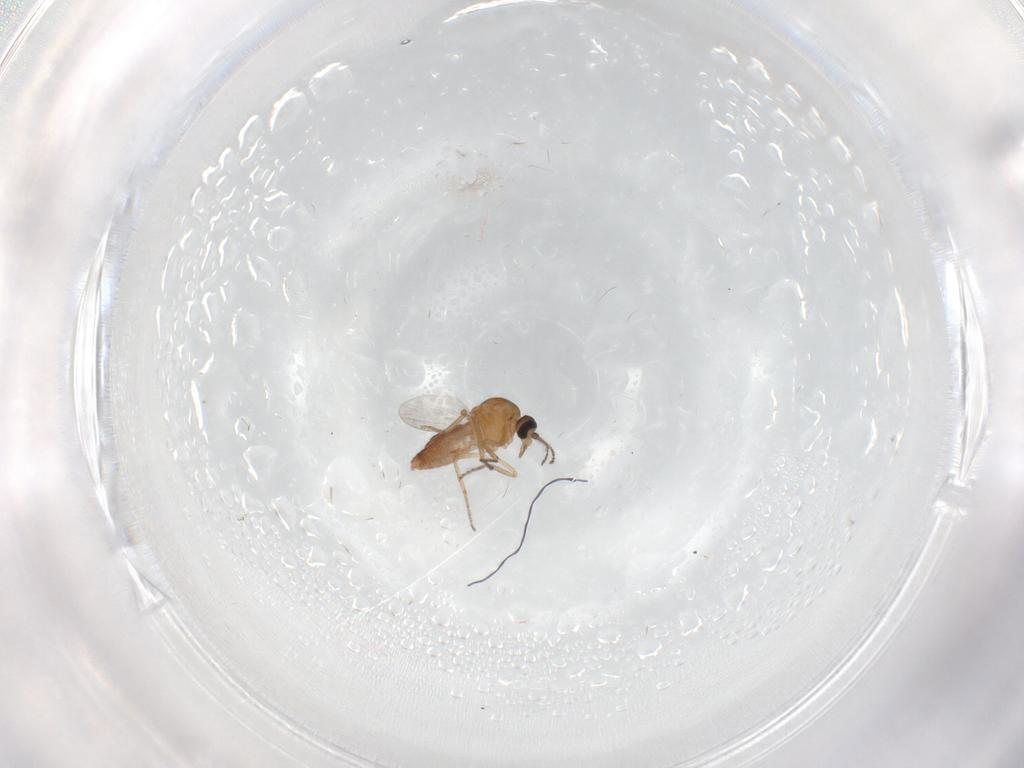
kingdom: Animalia
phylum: Arthropoda
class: Insecta
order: Diptera
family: Ceratopogonidae
